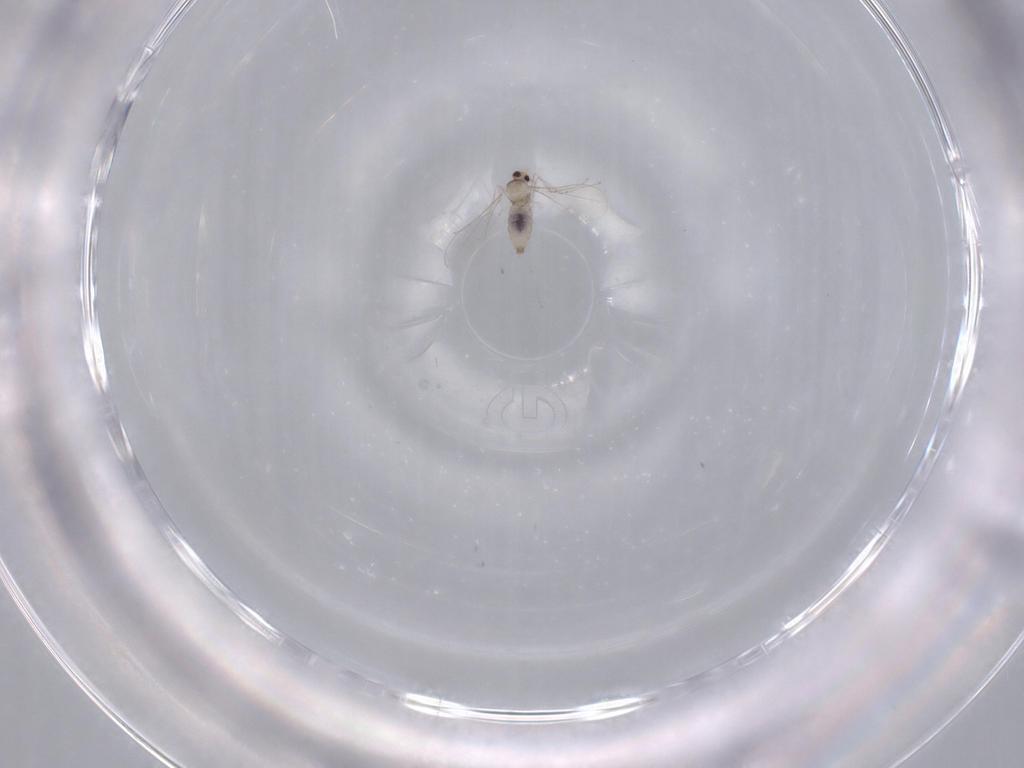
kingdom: Animalia
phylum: Arthropoda
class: Insecta
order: Diptera
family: Cecidomyiidae
